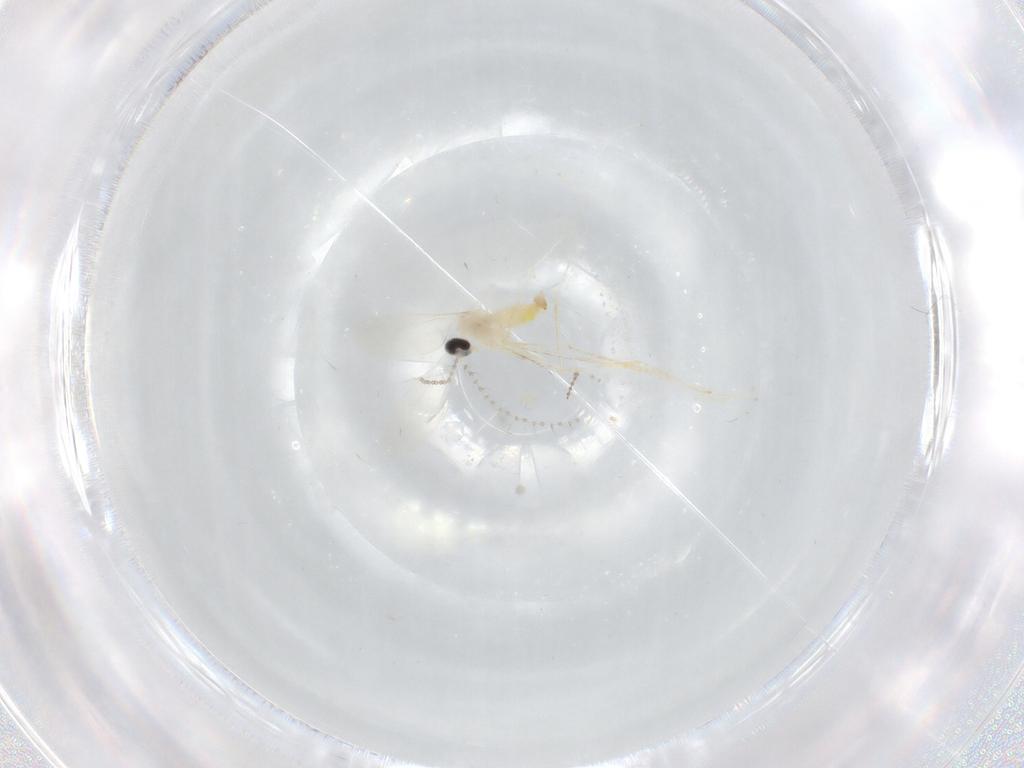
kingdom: Animalia
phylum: Arthropoda
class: Insecta
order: Diptera
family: Cecidomyiidae
